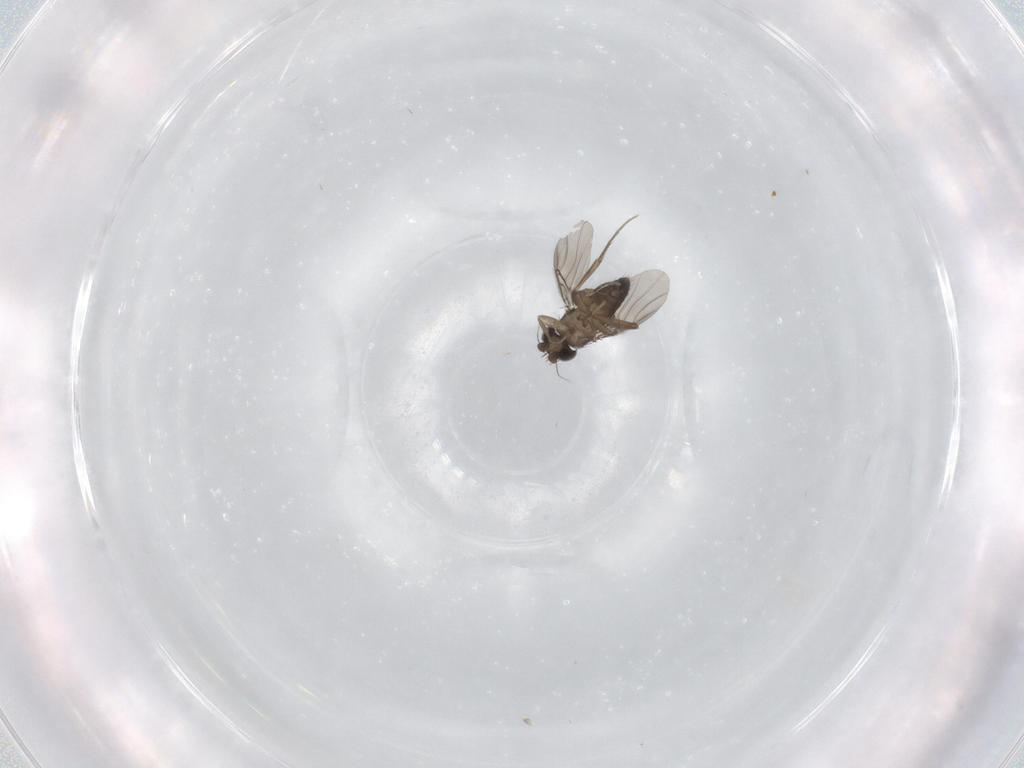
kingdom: Animalia
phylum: Arthropoda
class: Insecta
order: Diptera
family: Phoridae
